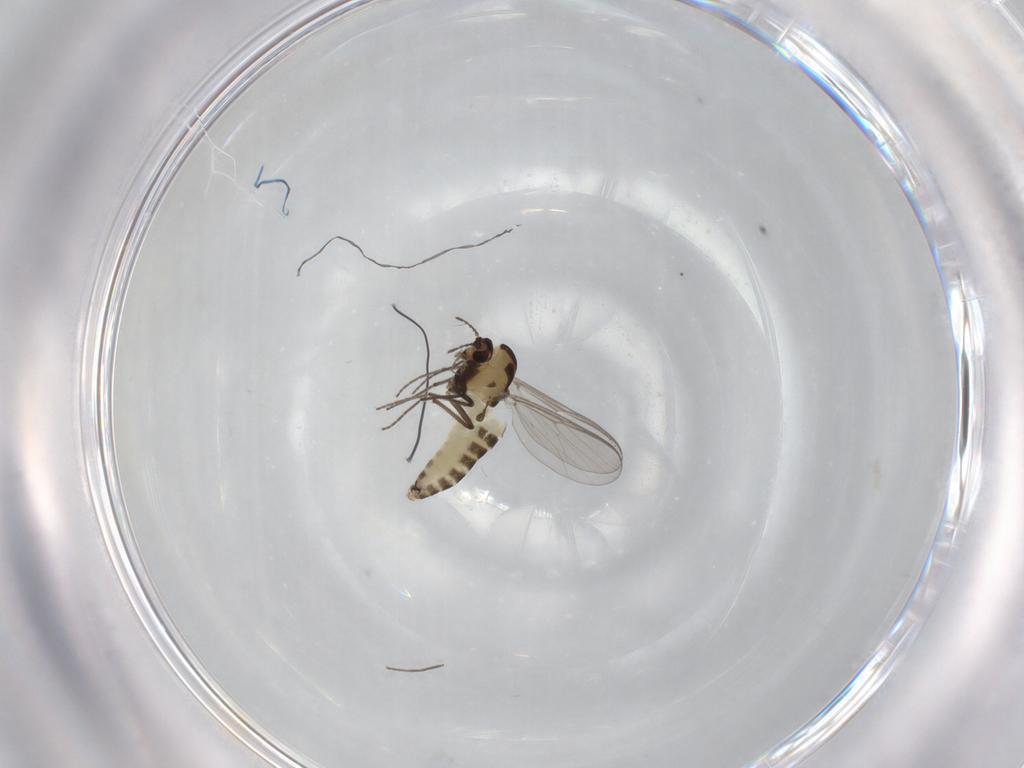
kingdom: Animalia
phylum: Arthropoda
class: Insecta
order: Diptera
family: Chironomidae
